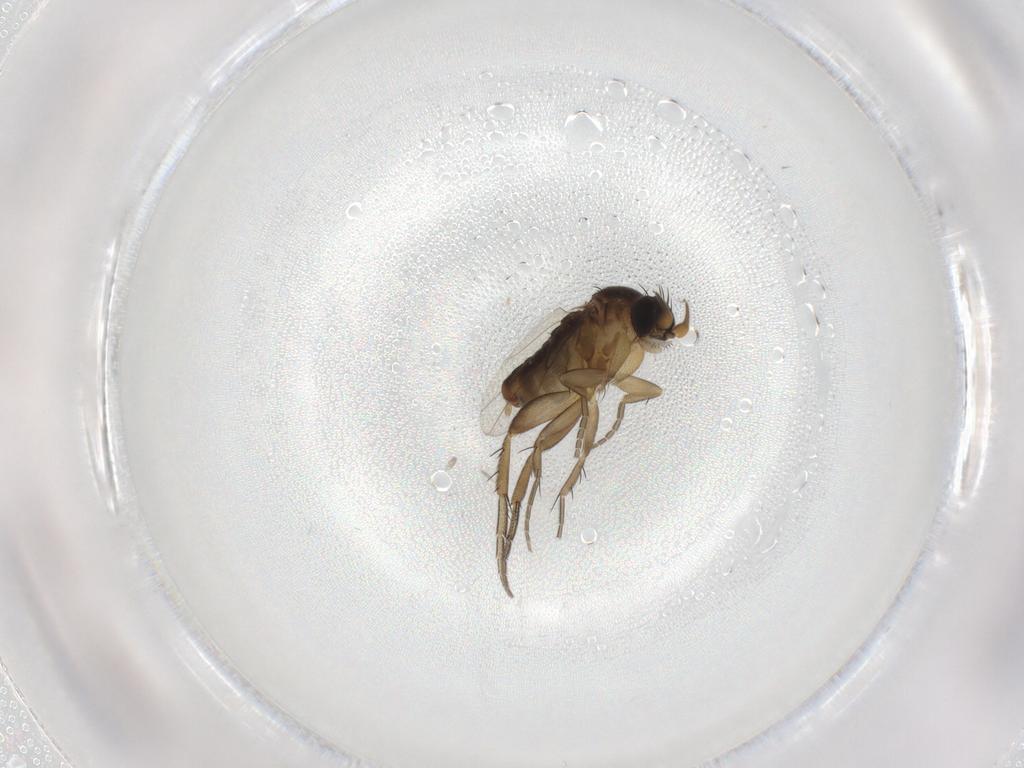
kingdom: Animalia
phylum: Arthropoda
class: Insecta
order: Diptera
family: Ceratopogonidae
